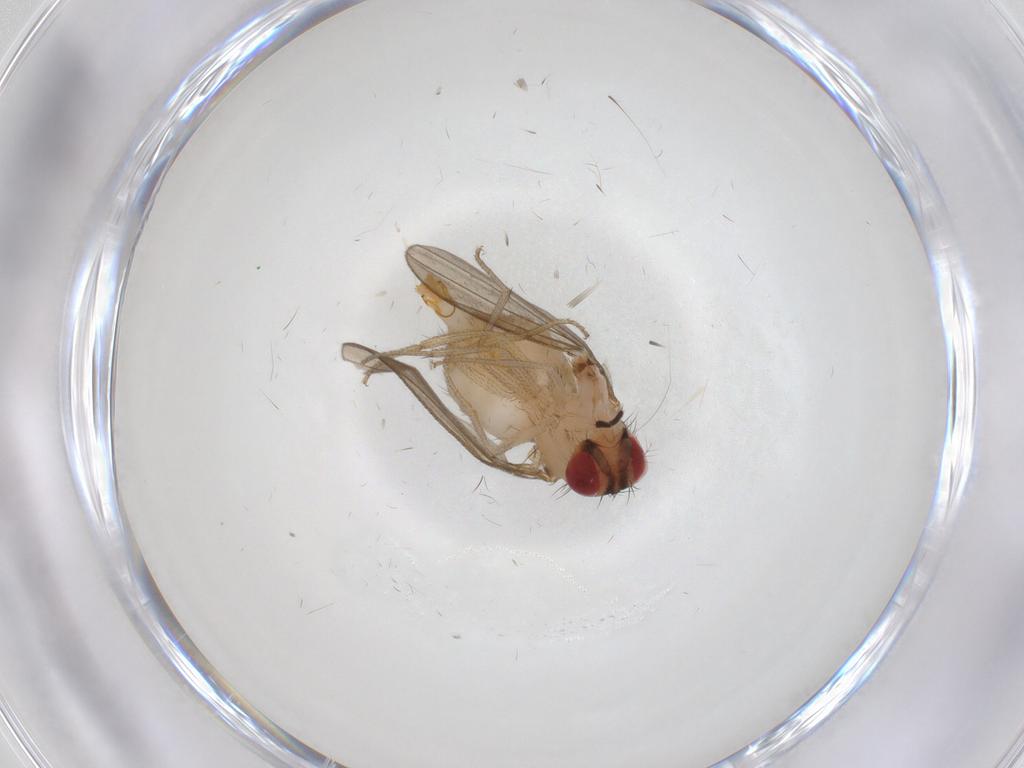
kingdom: Animalia
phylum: Arthropoda
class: Insecta
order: Diptera
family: Drosophilidae
